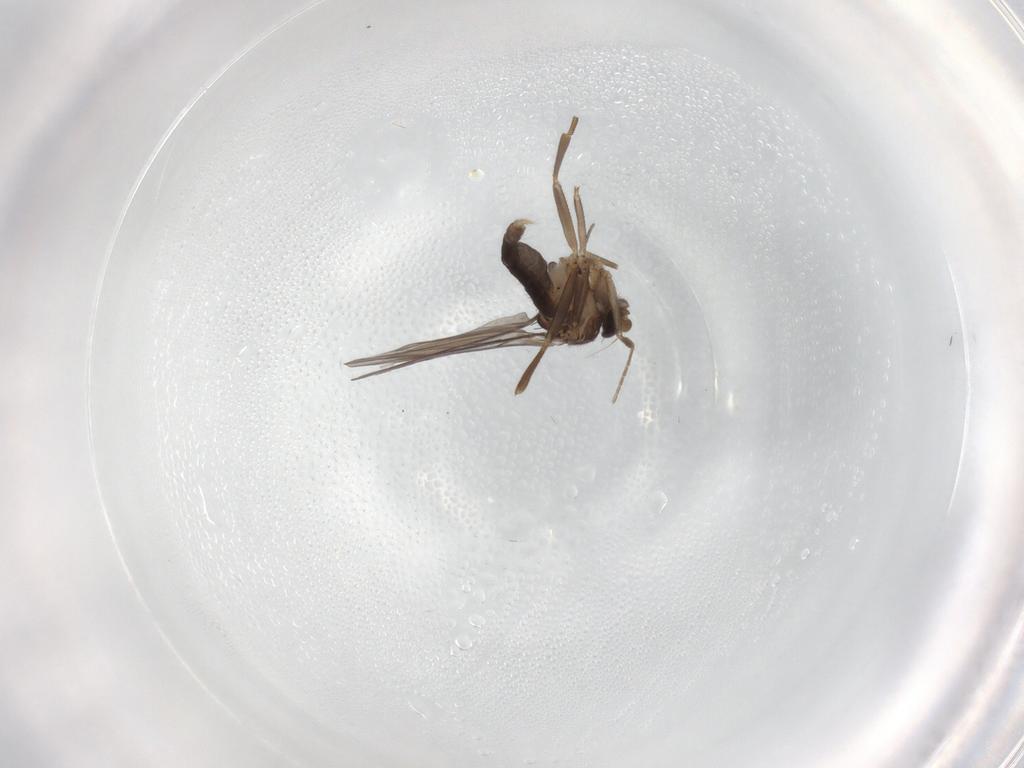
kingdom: Animalia
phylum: Arthropoda
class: Insecta
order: Diptera
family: Phoridae
